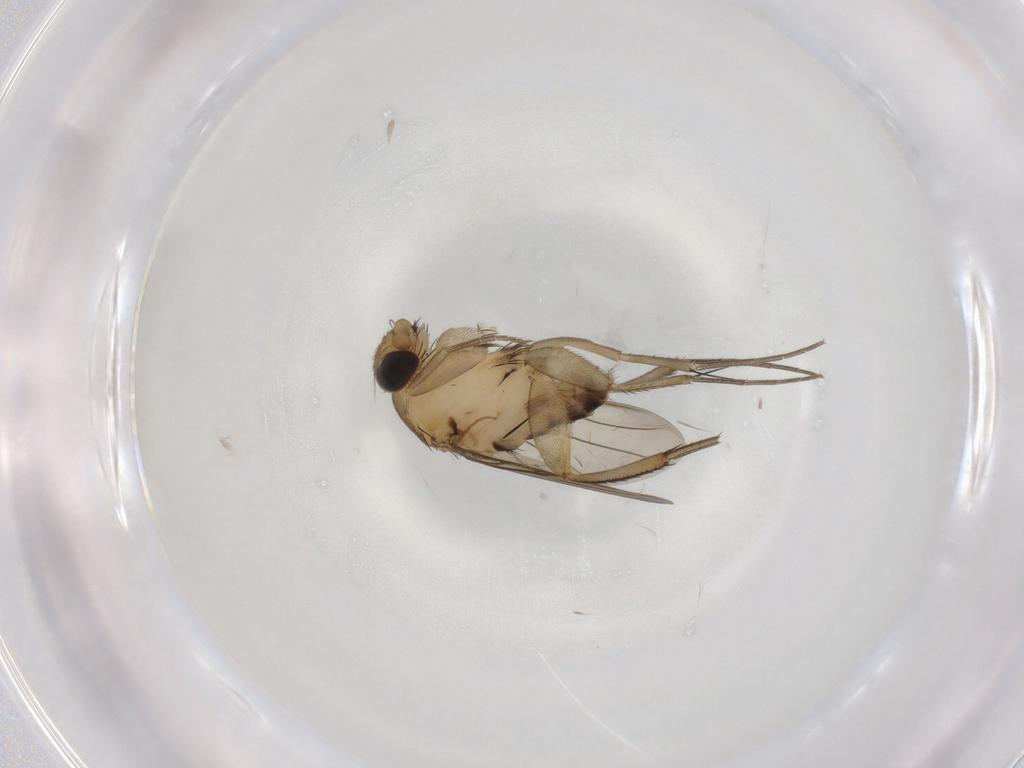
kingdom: Animalia
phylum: Arthropoda
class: Insecta
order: Diptera
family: Phoridae
